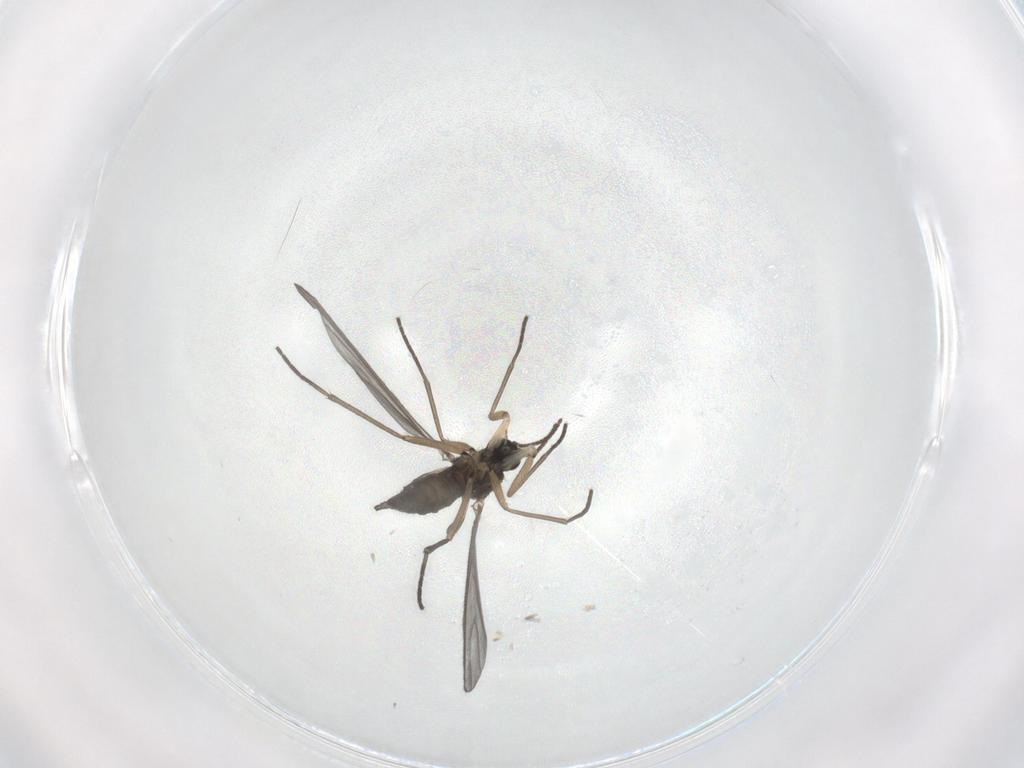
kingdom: Animalia
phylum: Arthropoda
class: Insecta
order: Diptera
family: Sciaridae
